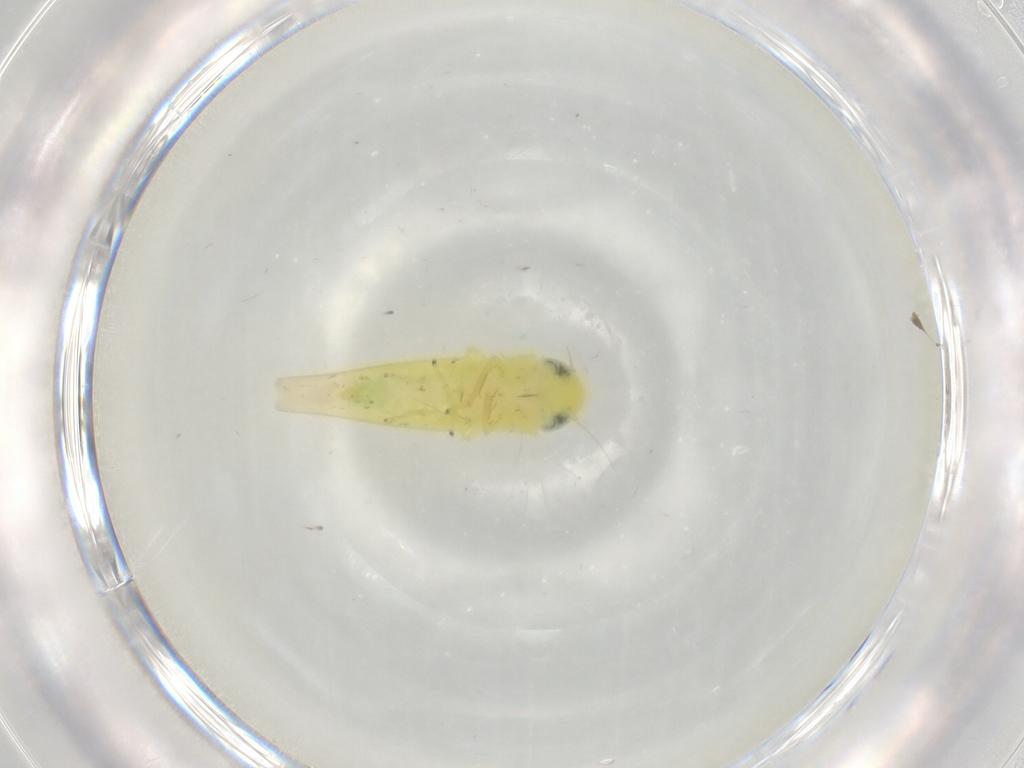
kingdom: Animalia
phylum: Arthropoda
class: Insecta
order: Hemiptera
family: Cicadellidae
